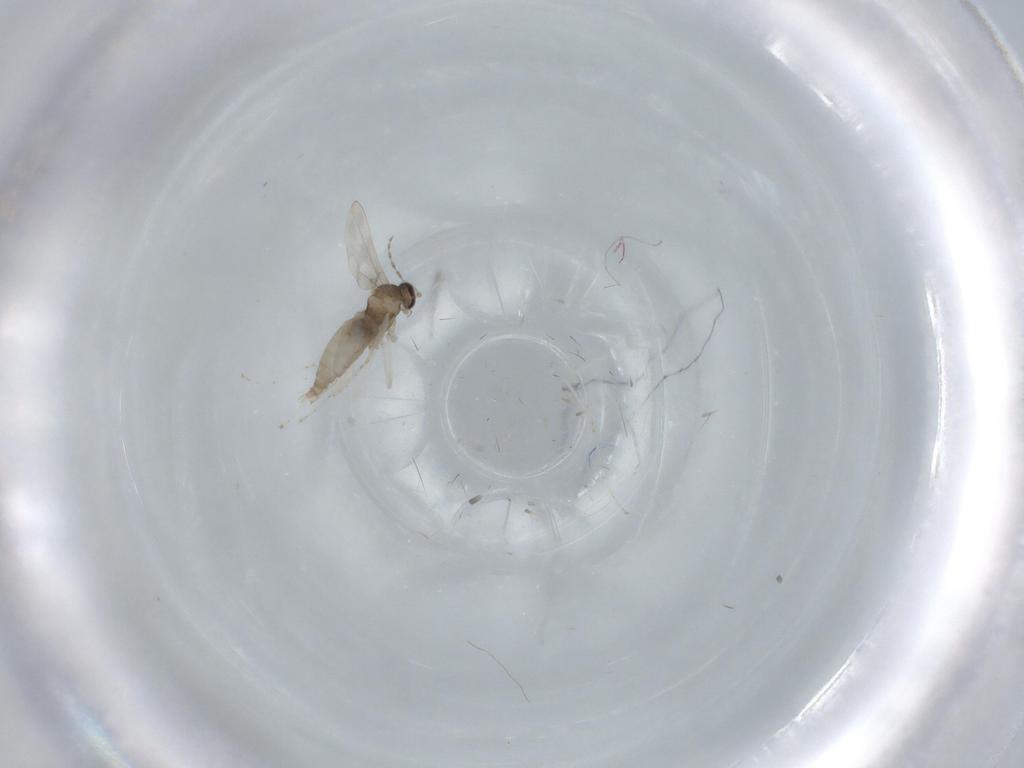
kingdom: Animalia
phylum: Arthropoda
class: Insecta
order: Diptera
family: Cecidomyiidae
